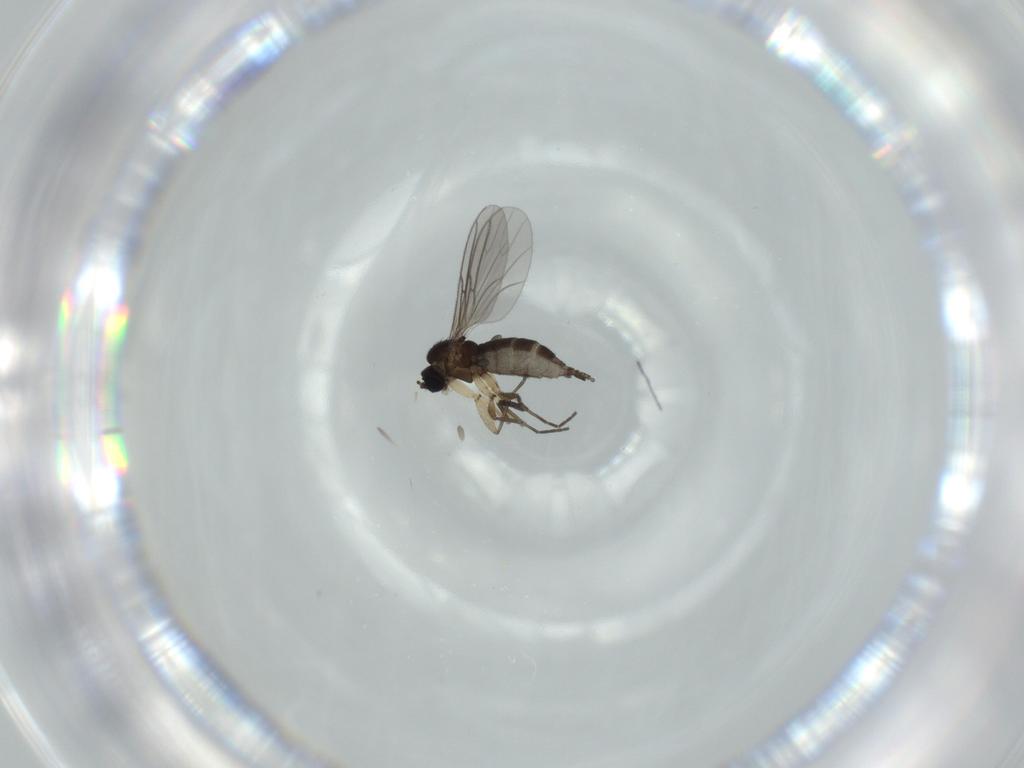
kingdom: Animalia
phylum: Arthropoda
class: Insecta
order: Diptera
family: Sciaridae
